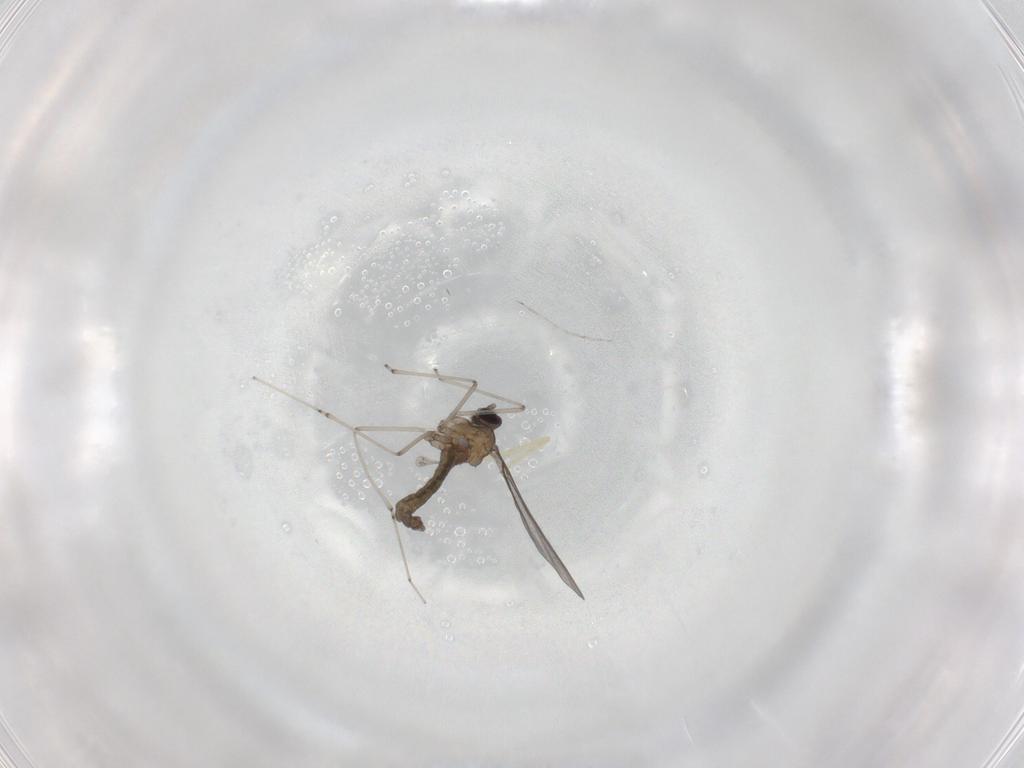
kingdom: Animalia
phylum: Arthropoda
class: Insecta
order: Diptera
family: Cecidomyiidae
